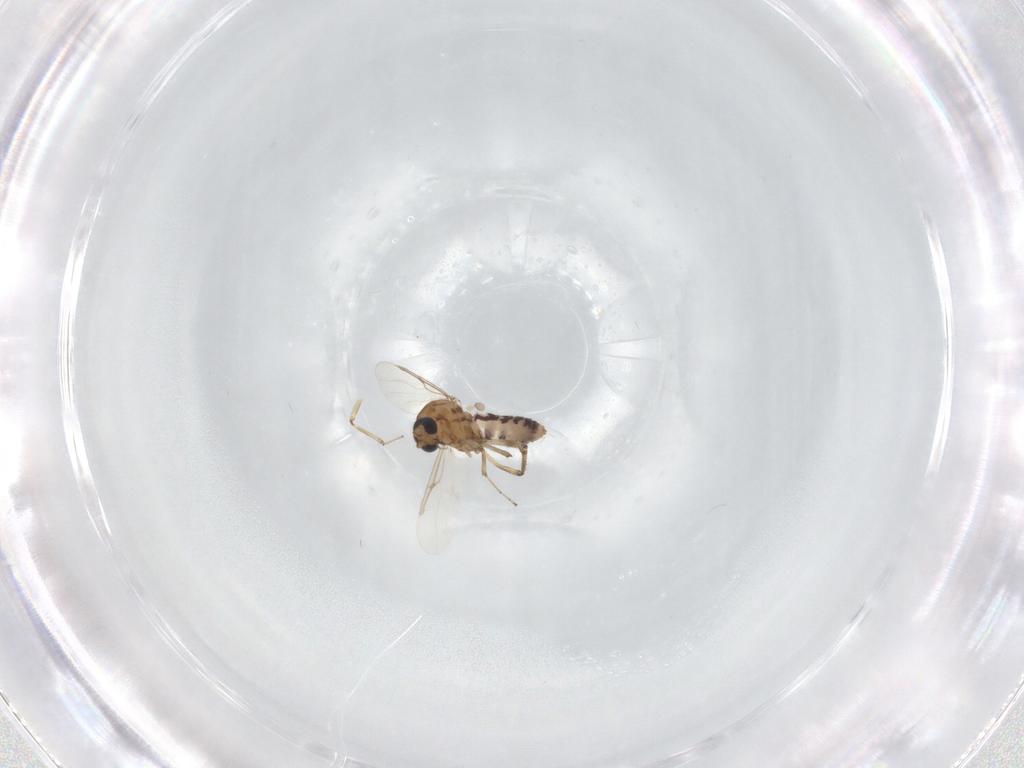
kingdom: Animalia
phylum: Arthropoda
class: Insecta
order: Diptera
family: Ceratopogonidae
